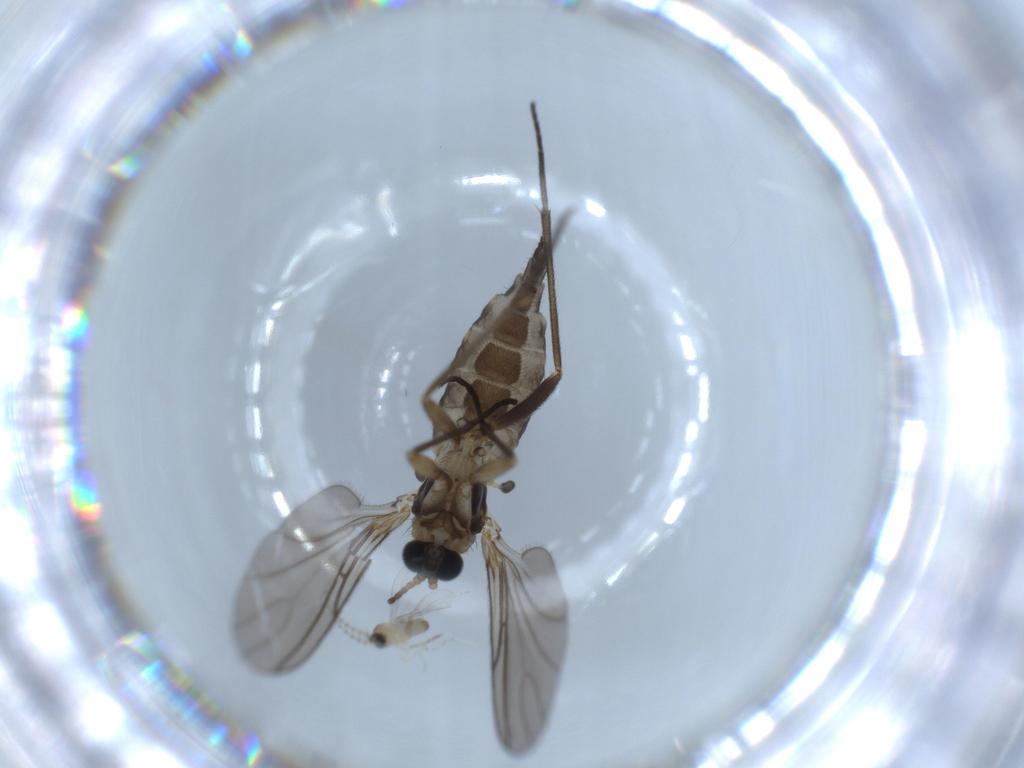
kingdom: Animalia
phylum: Arthropoda
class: Insecta
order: Diptera
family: Sciaridae
